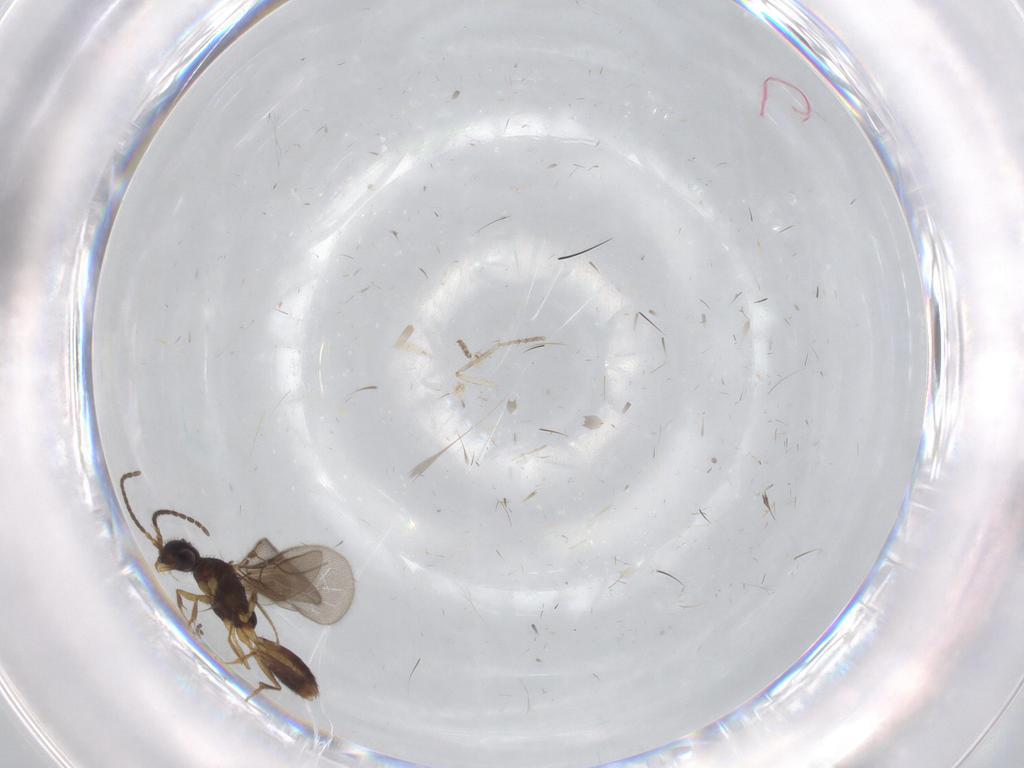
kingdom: Animalia
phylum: Arthropoda
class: Insecta
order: Hymenoptera
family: Bethylidae
